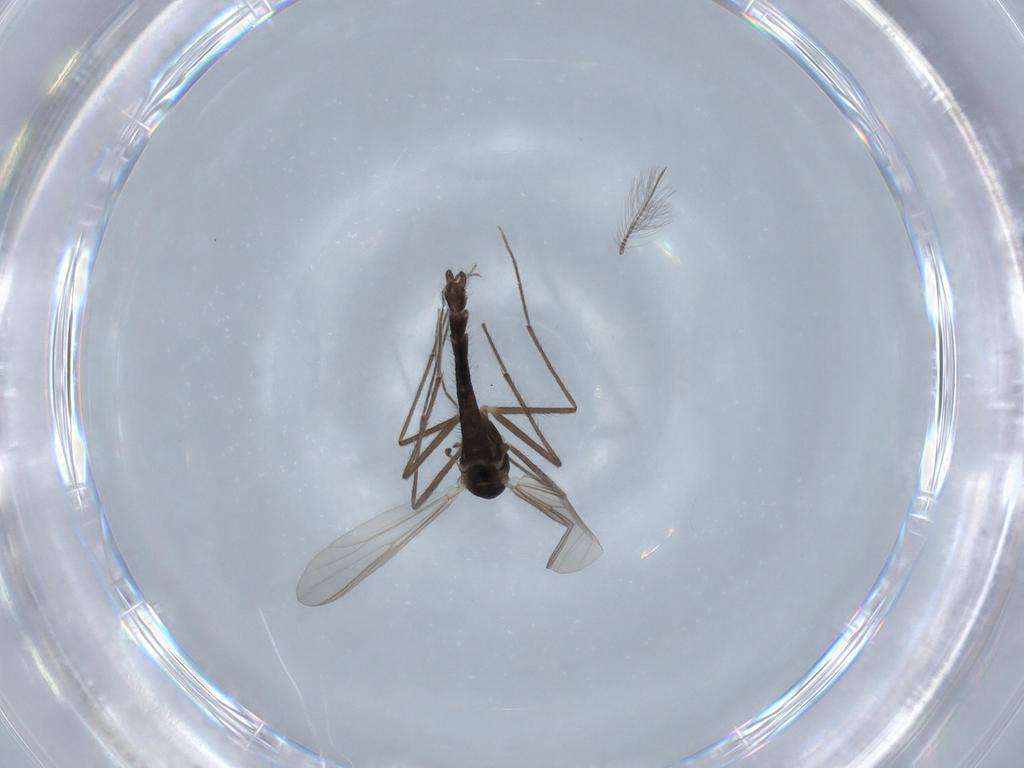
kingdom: Animalia
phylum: Arthropoda
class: Insecta
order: Diptera
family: Chironomidae
